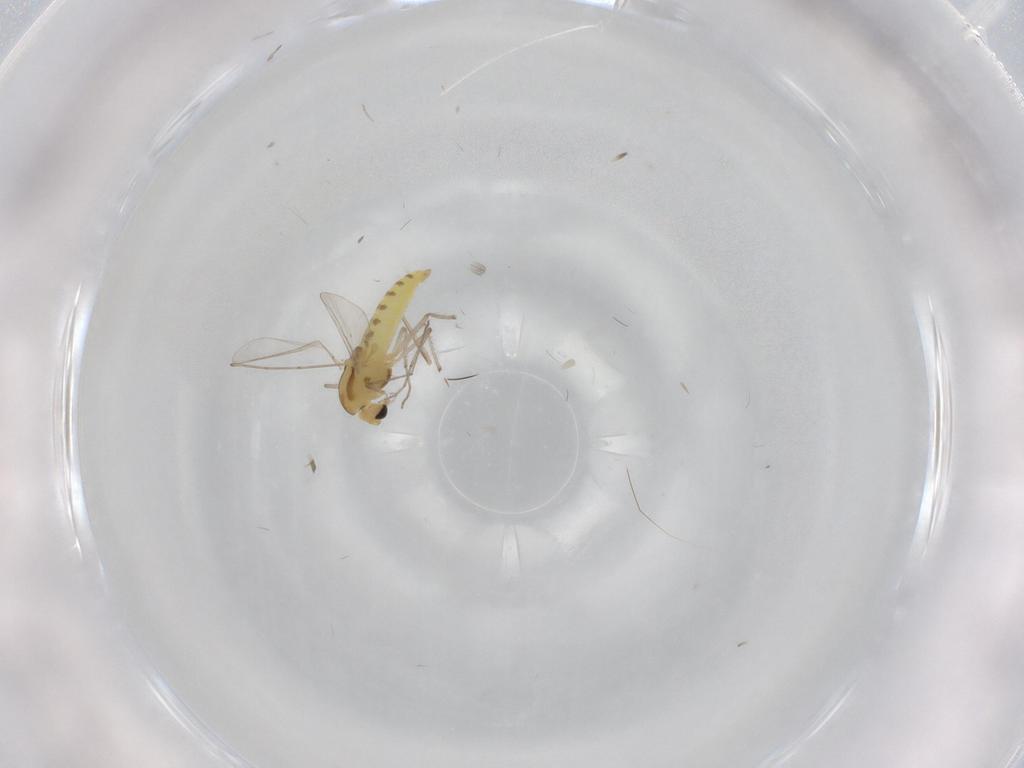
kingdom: Animalia
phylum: Arthropoda
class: Insecta
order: Diptera
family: Chironomidae
